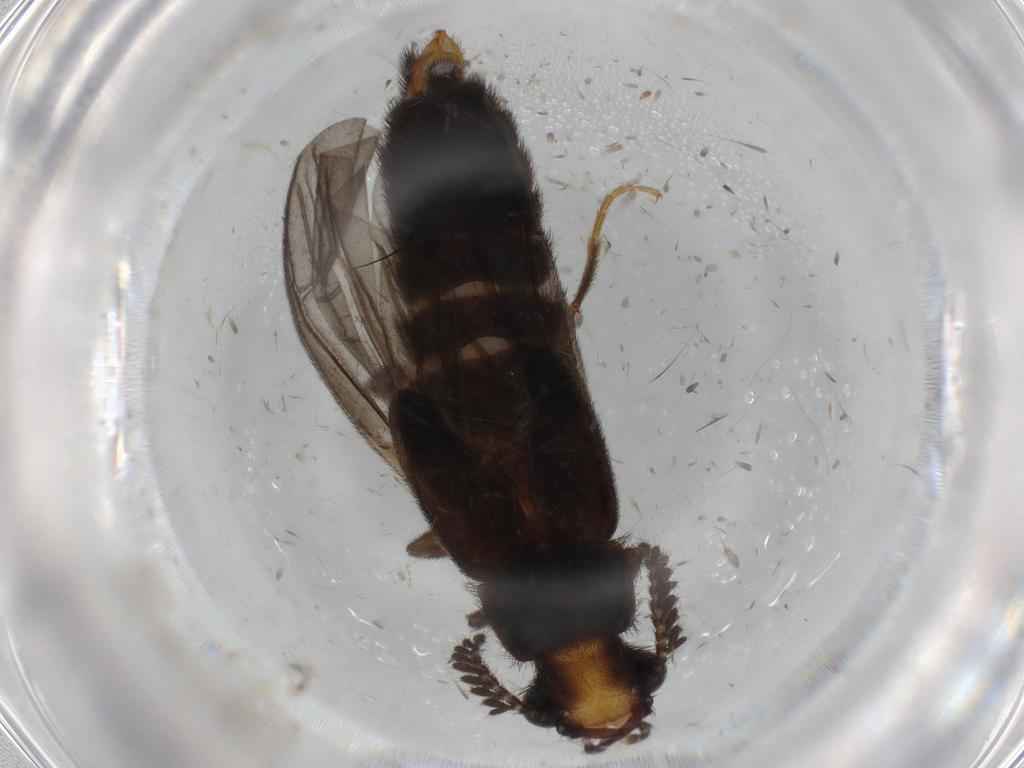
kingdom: Animalia
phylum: Arthropoda
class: Insecta
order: Coleoptera
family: Phengodidae
